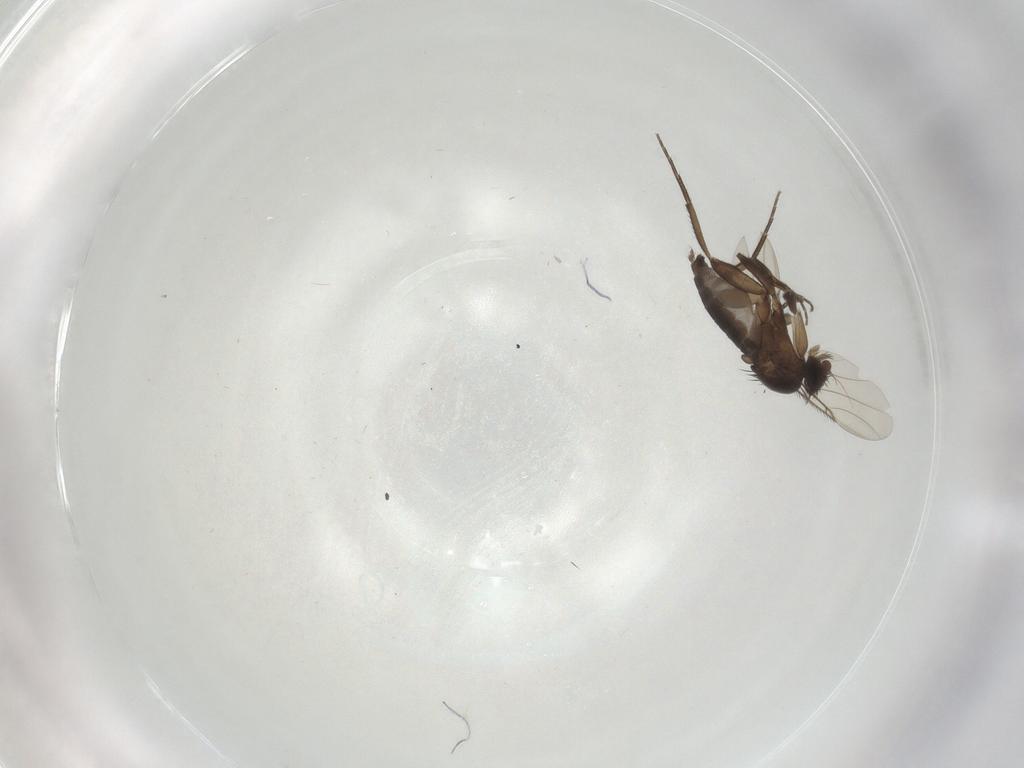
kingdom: Animalia
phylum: Arthropoda
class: Insecta
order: Diptera
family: Phoridae
